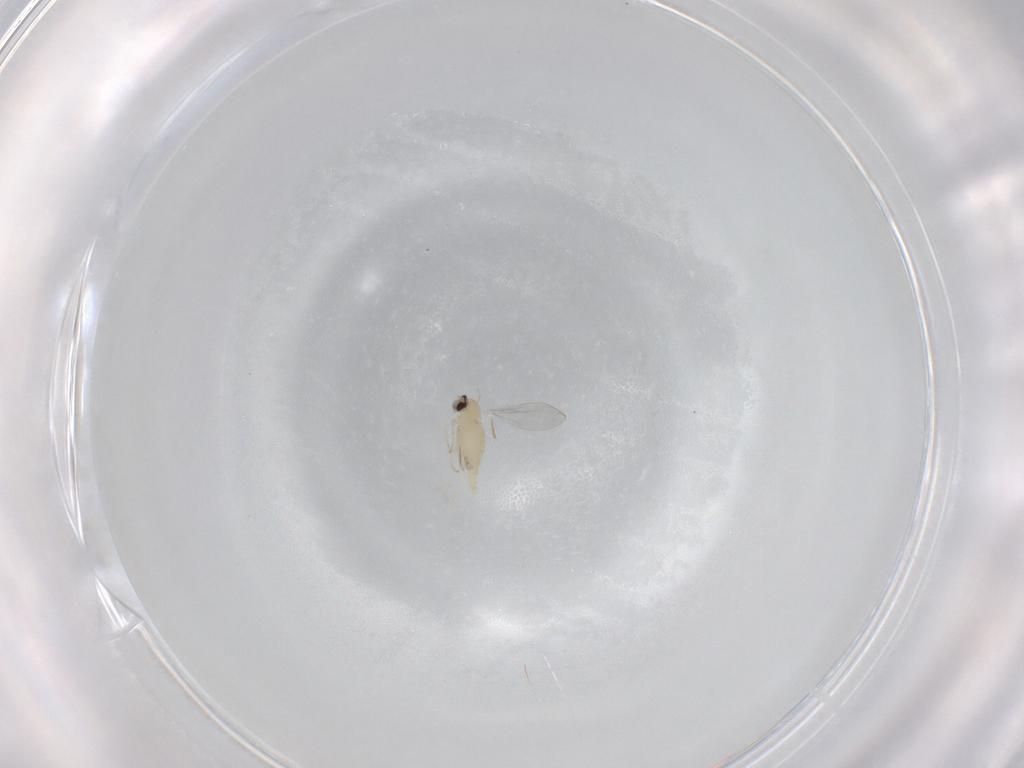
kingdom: Animalia
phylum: Arthropoda
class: Insecta
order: Diptera
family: Cecidomyiidae
